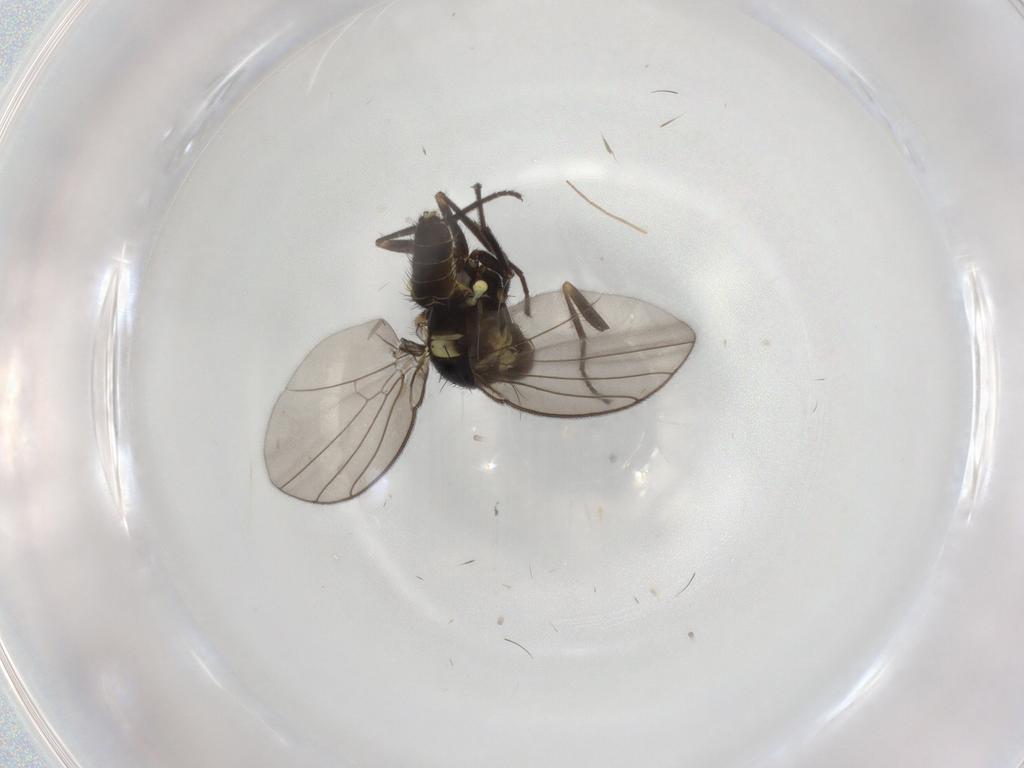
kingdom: Animalia
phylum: Arthropoda
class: Insecta
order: Diptera
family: Chironomidae
